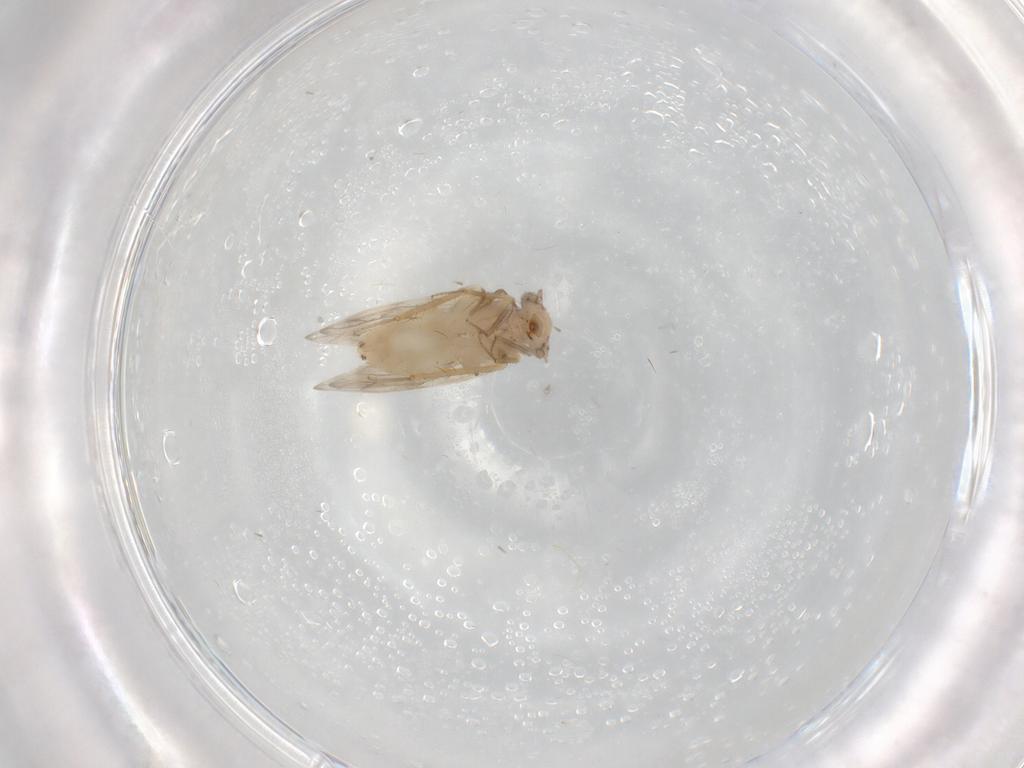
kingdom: Animalia
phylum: Arthropoda
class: Insecta
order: Psocodea
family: Lepidopsocidae
